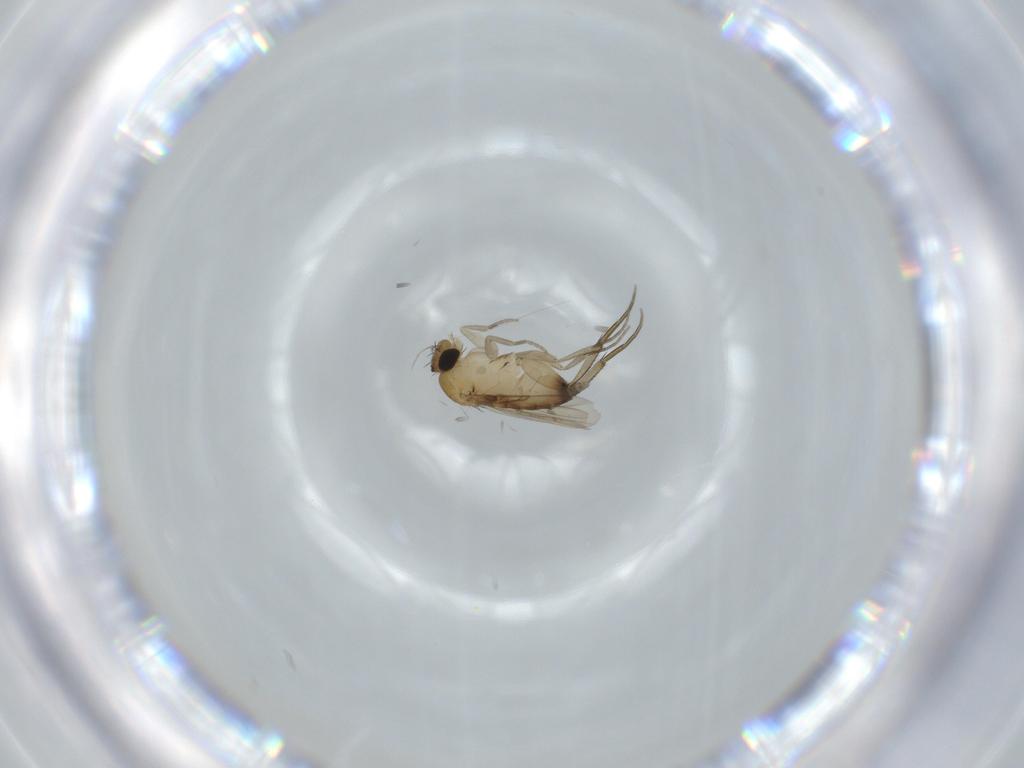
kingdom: Animalia
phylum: Arthropoda
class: Insecta
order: Diptera
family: Phoridae
